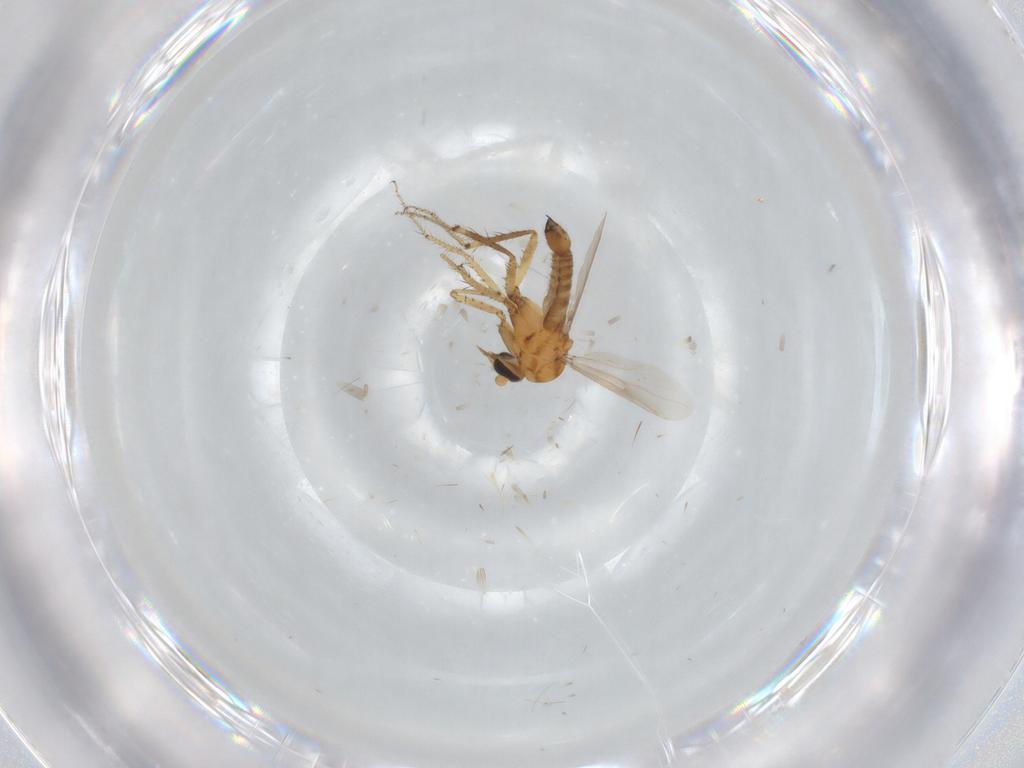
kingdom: Animalia
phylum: Arthropoda
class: Insecta
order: Diptera
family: Ceratopogonidae
